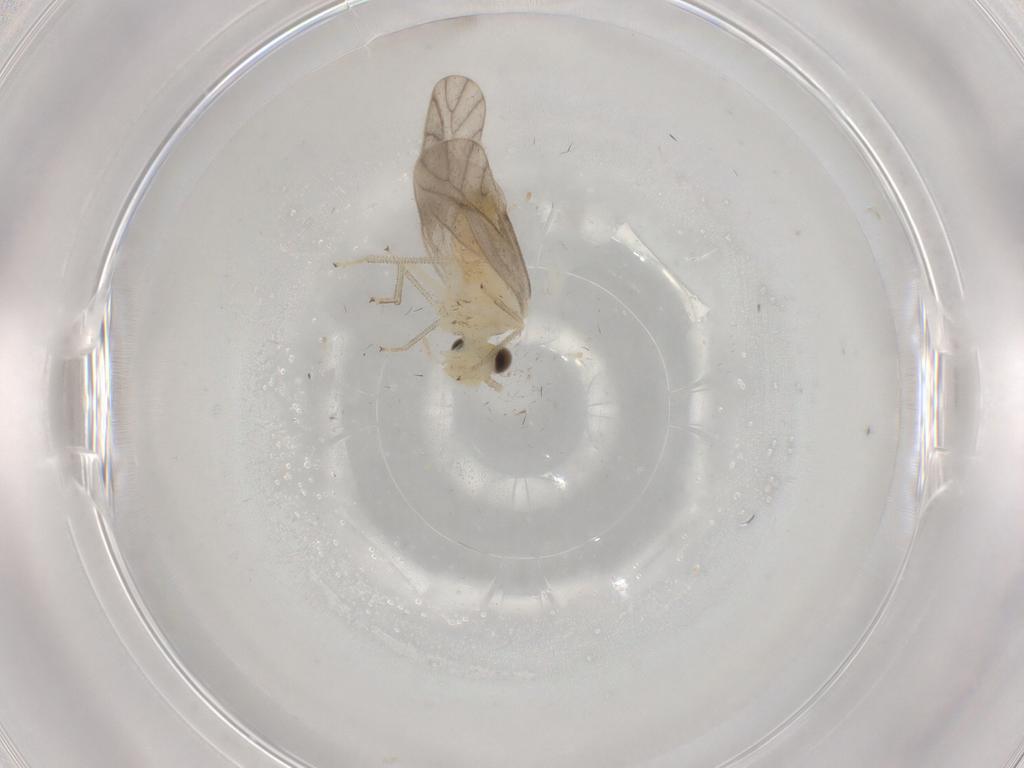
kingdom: Animalia
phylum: Arthropoda
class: Insecta
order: Psocodea
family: Caeciliusidae
